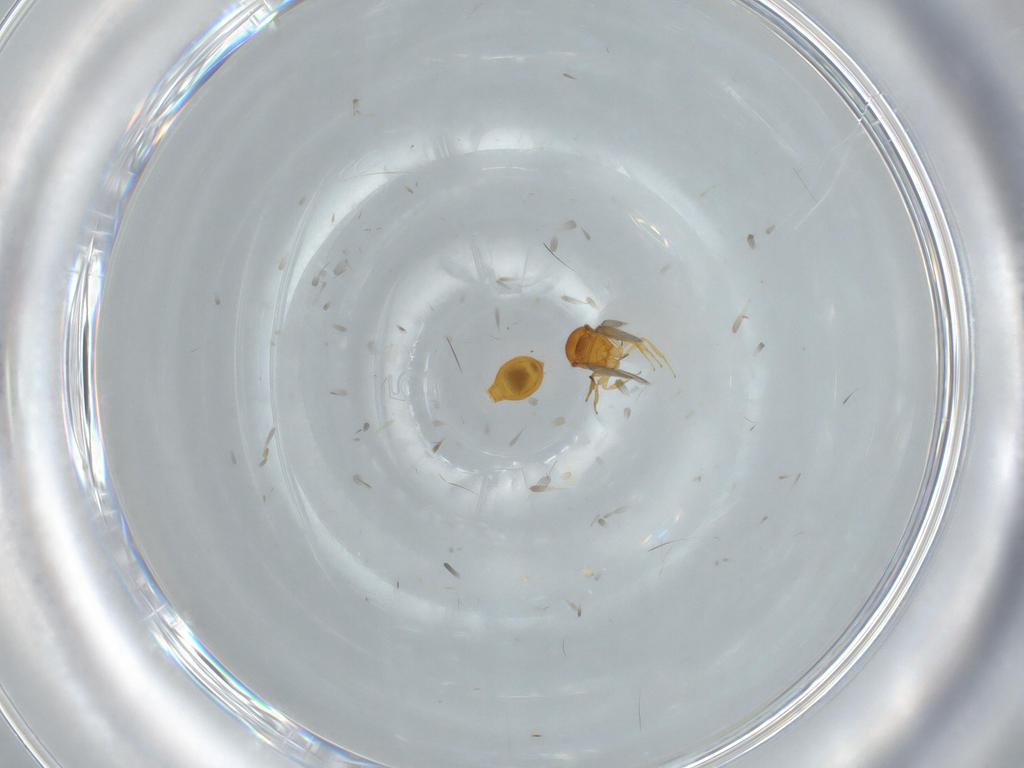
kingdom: Animalia
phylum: Arthropoda
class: Insecta
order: Hymenoptera
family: Scelionidae
